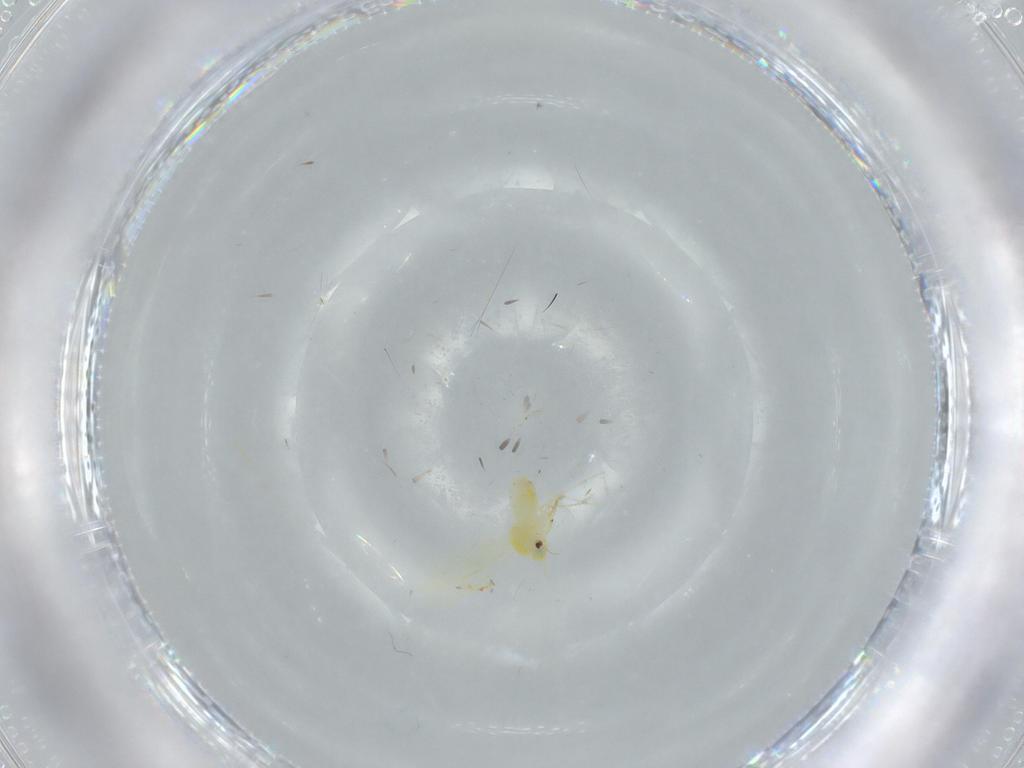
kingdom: Animalia
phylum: Arthropoda
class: Insecta
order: Hemiptera
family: Aleyrodidae
